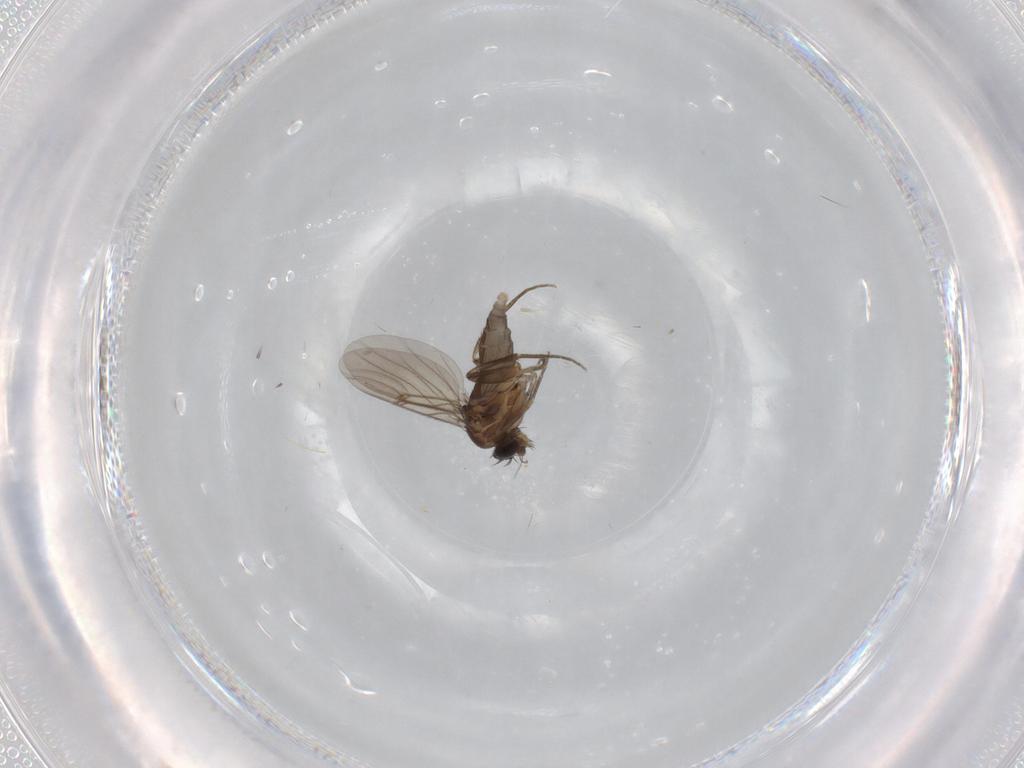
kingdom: Animalia
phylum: Arthropoda
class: Insecta
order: Diptera
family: Phoridae
